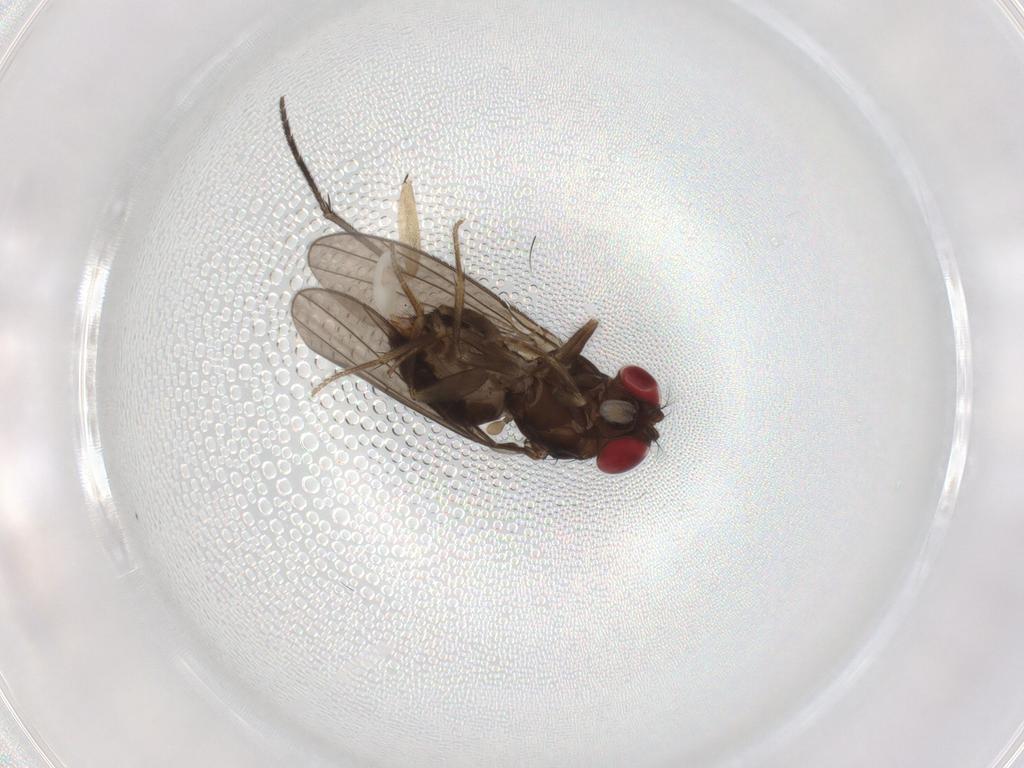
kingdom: Animalia
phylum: Arthropoda
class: Insecta
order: Diptera
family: Drosophilidae
